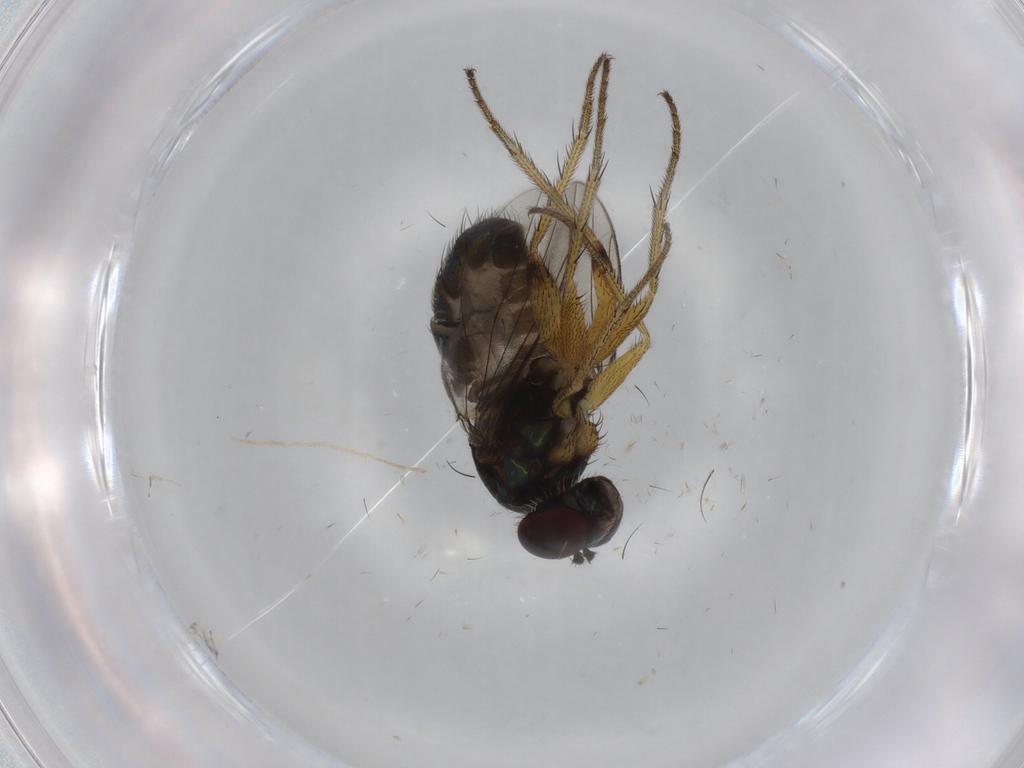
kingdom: Animalia
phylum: Arthropoda
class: Insecta
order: Diptera
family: Dolichopodidae
